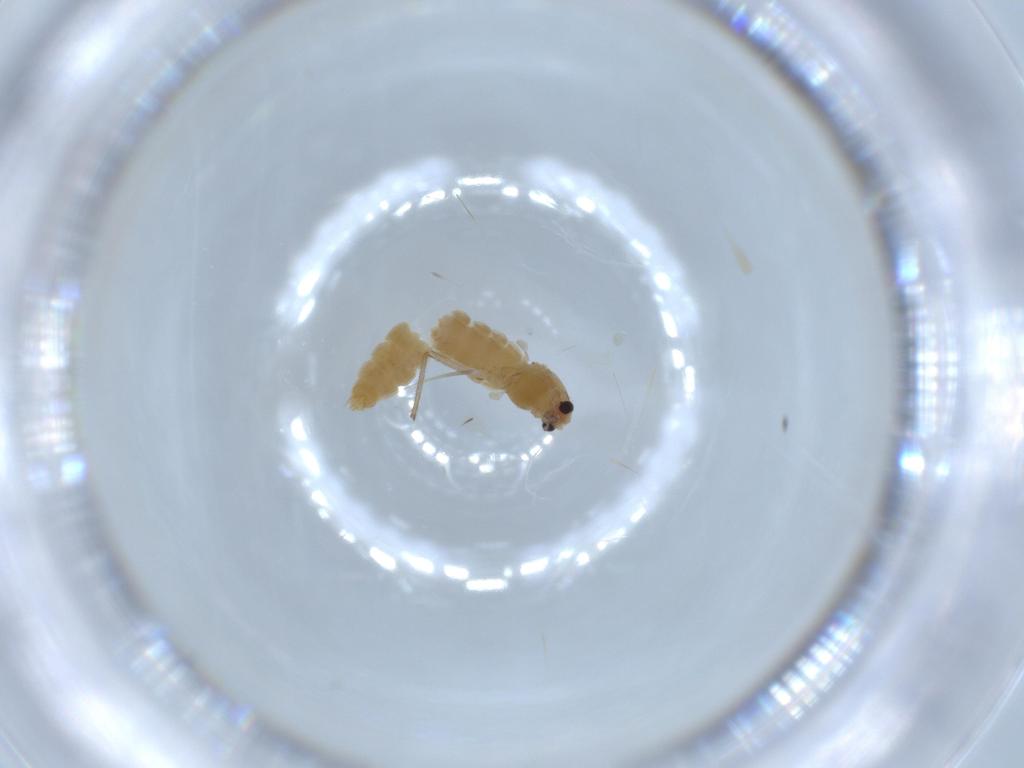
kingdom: Animalia
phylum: Arthropoda
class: Insecta
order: Diptera
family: Chironomidae
